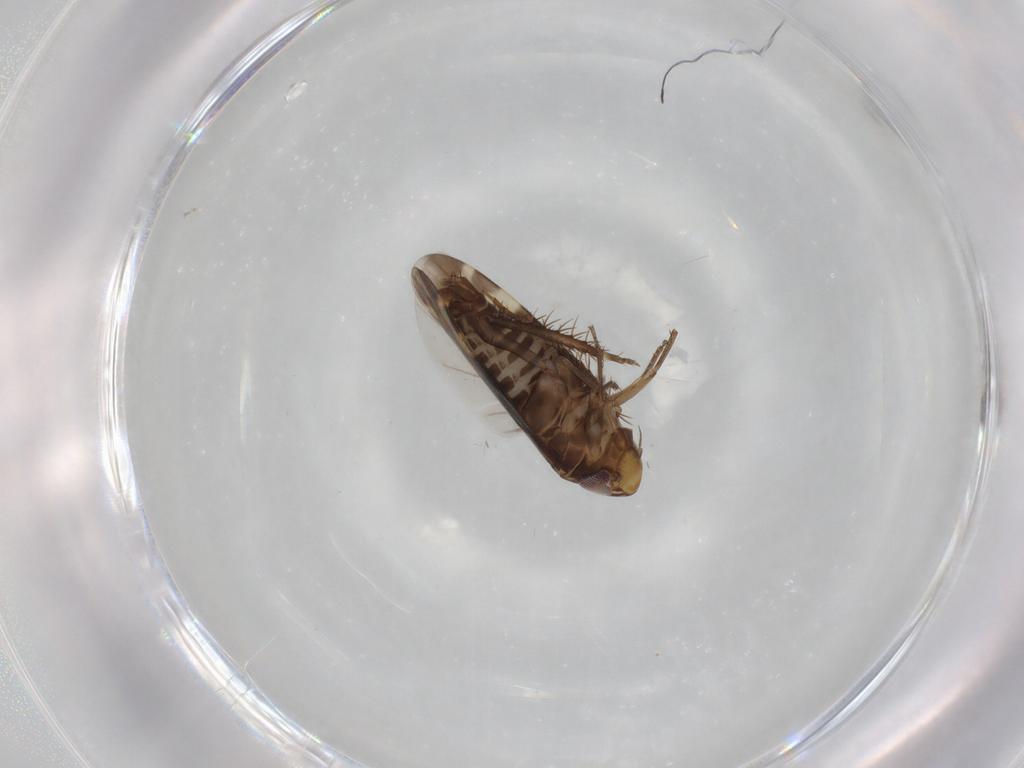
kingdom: Animalia
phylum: Arthropoda
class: Insecta
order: Hemiptera
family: Cicadellidae
